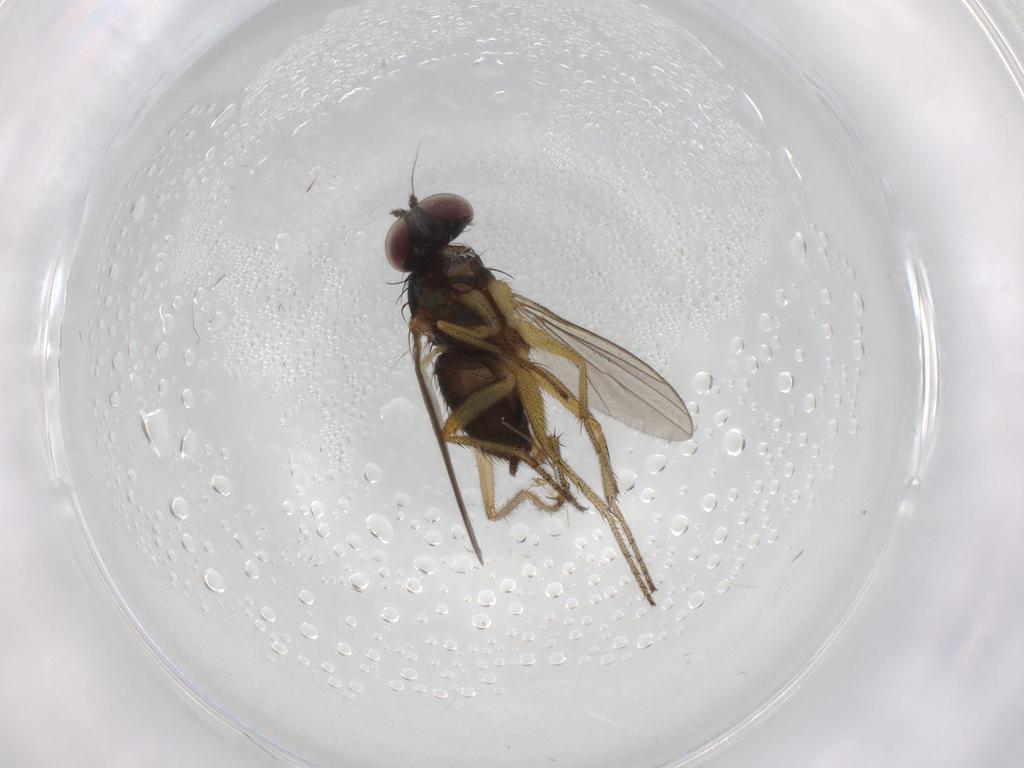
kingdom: Animalia
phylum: Arthropoda
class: Insecta
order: Diptera
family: Dolichopodidae
